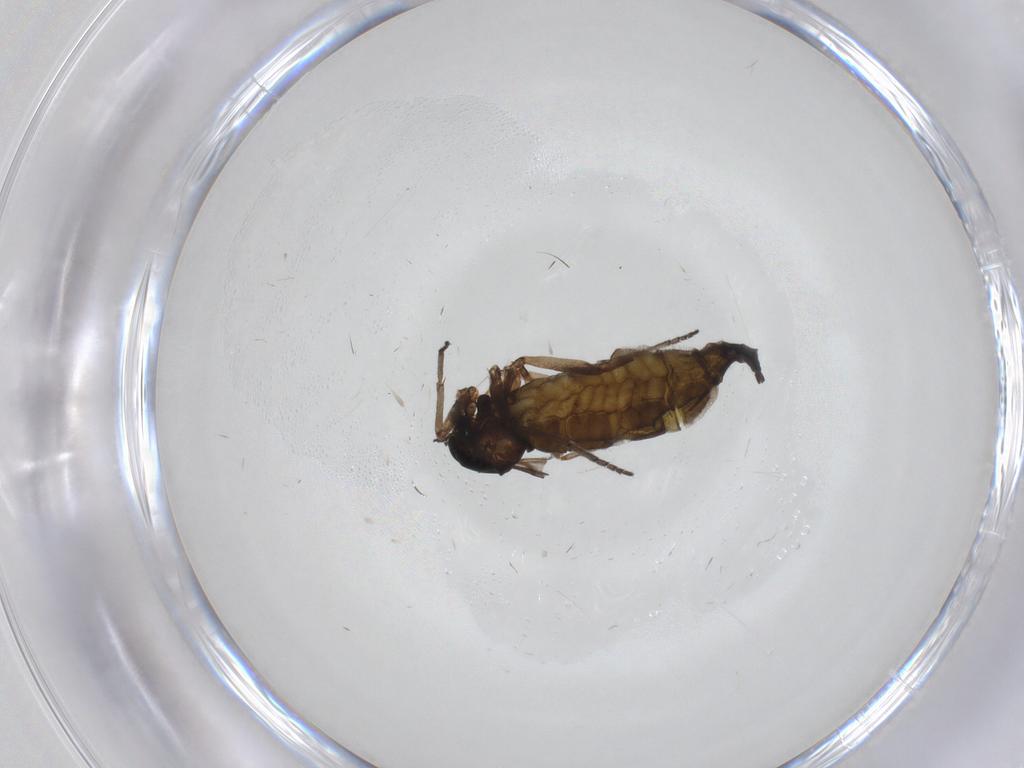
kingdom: Animalia
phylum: Arthropoda
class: Insecta
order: Diptera
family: Sciaridae
